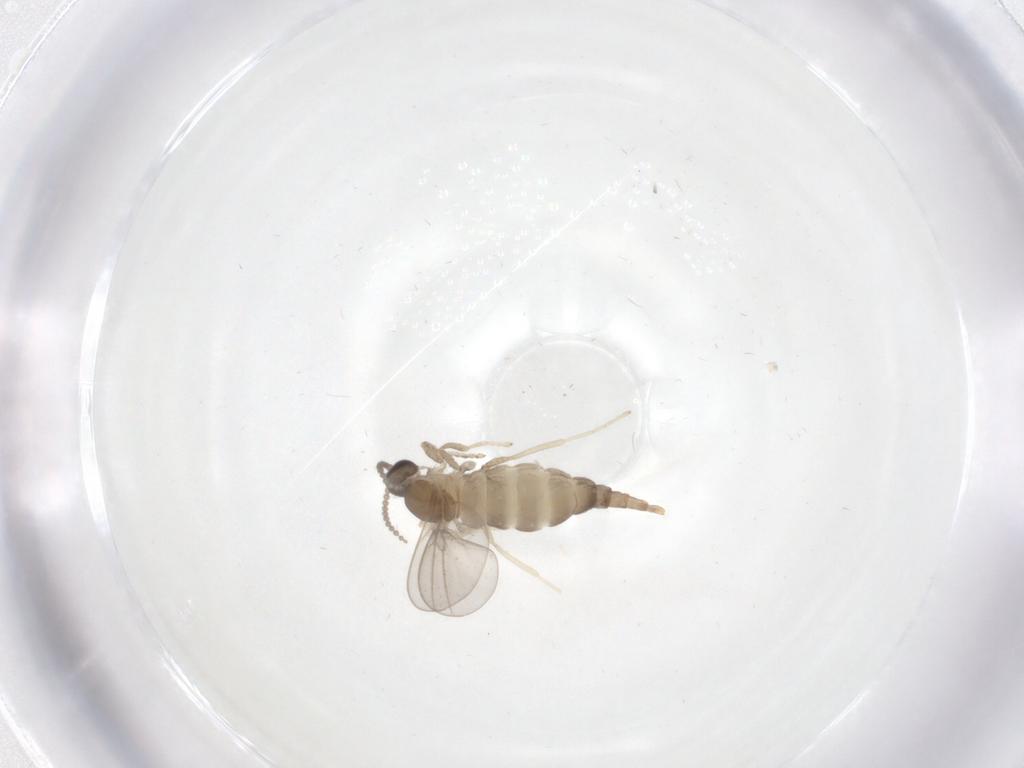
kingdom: Animalia
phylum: Arthropoda
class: Insecta
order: Diptera
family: Cecidomyiidae
